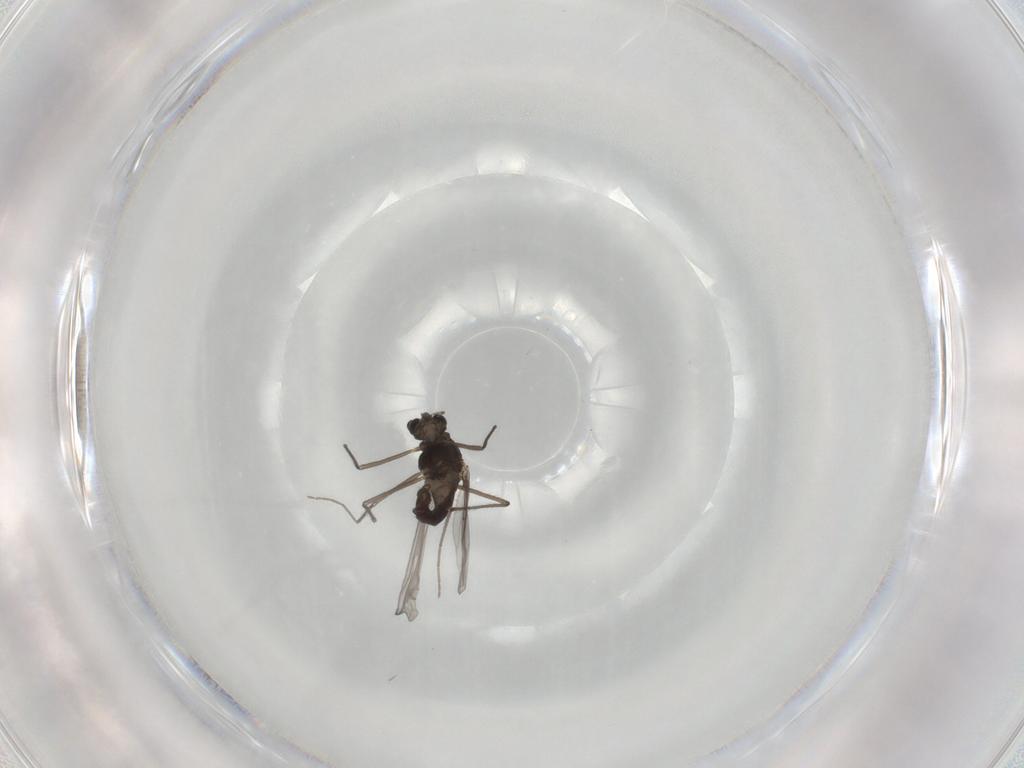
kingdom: Animalia
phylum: Arthropoda
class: Insecta
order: Diptera
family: Chironomidae
